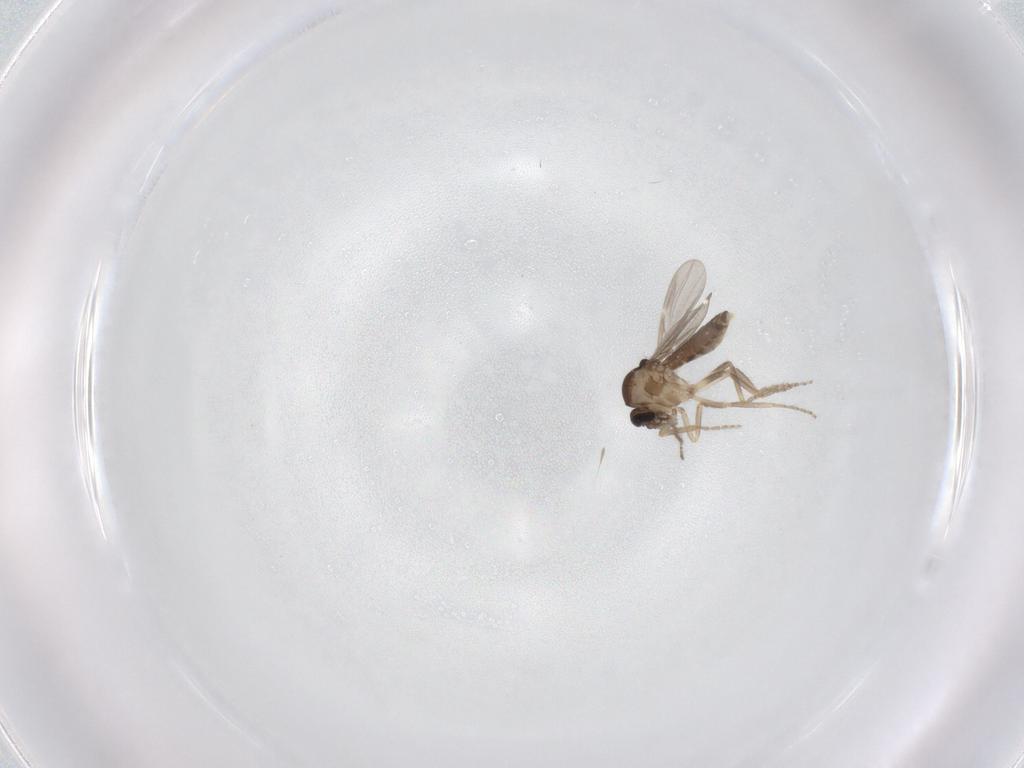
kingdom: Animalia
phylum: Arthropoda
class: Insecta
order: Diptera
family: Ceratopogonidae
